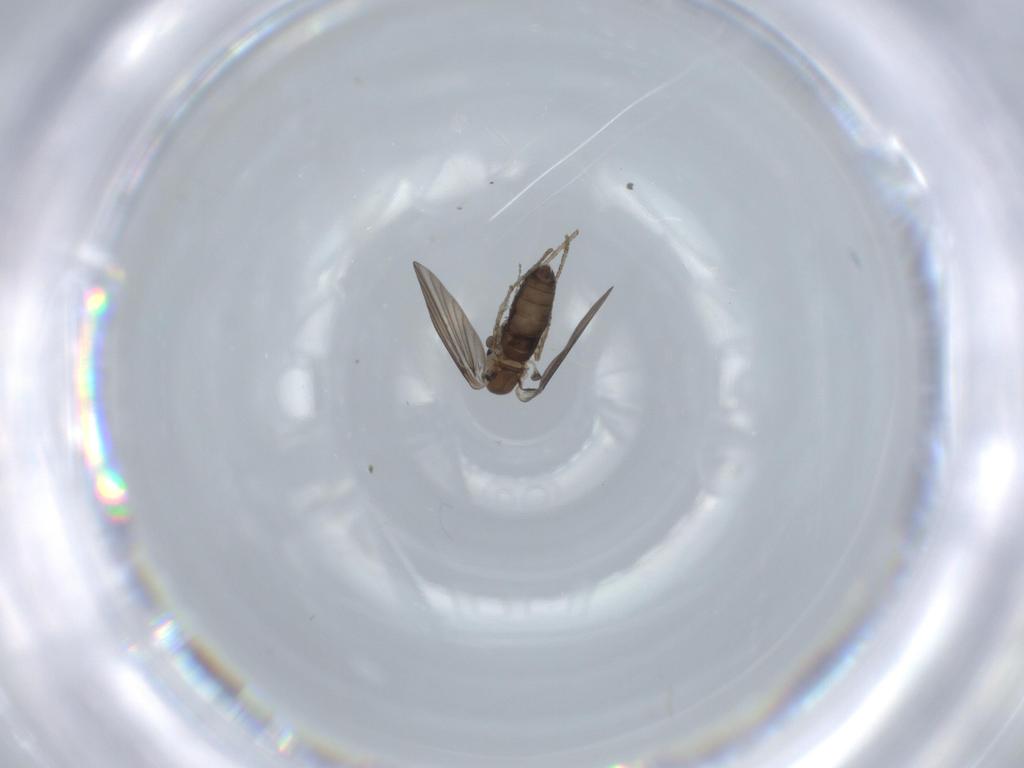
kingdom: Animalia
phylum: Arthropoda
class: Insecta
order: Diptera
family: Psychodidae
